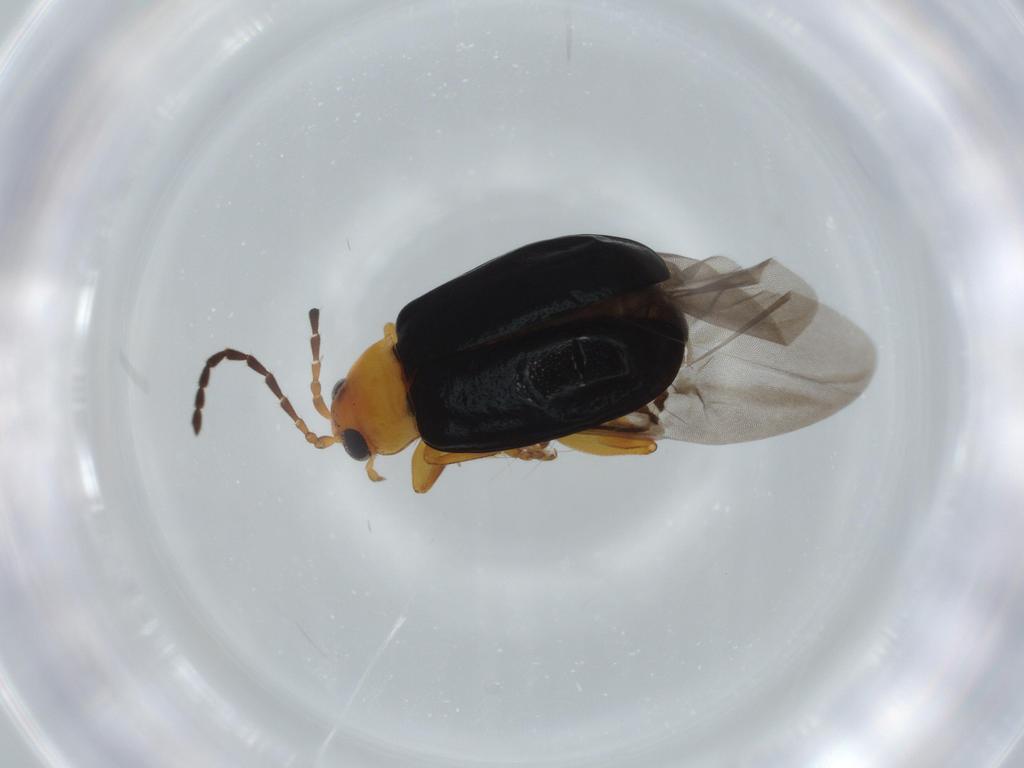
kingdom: Animalia
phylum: Arthropoda
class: Insecta
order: Coleoptera
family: Chrysomelidae
